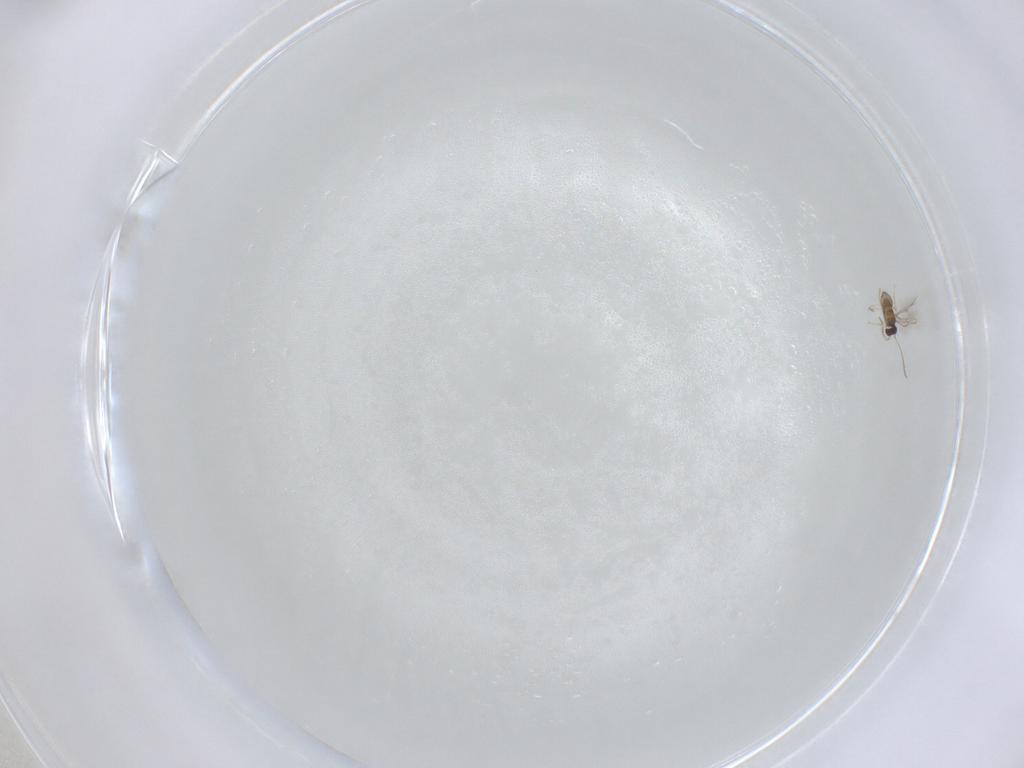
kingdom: Animalia
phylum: Arthropoda
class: Insecta
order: Diptera
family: Cecidomyiidae
